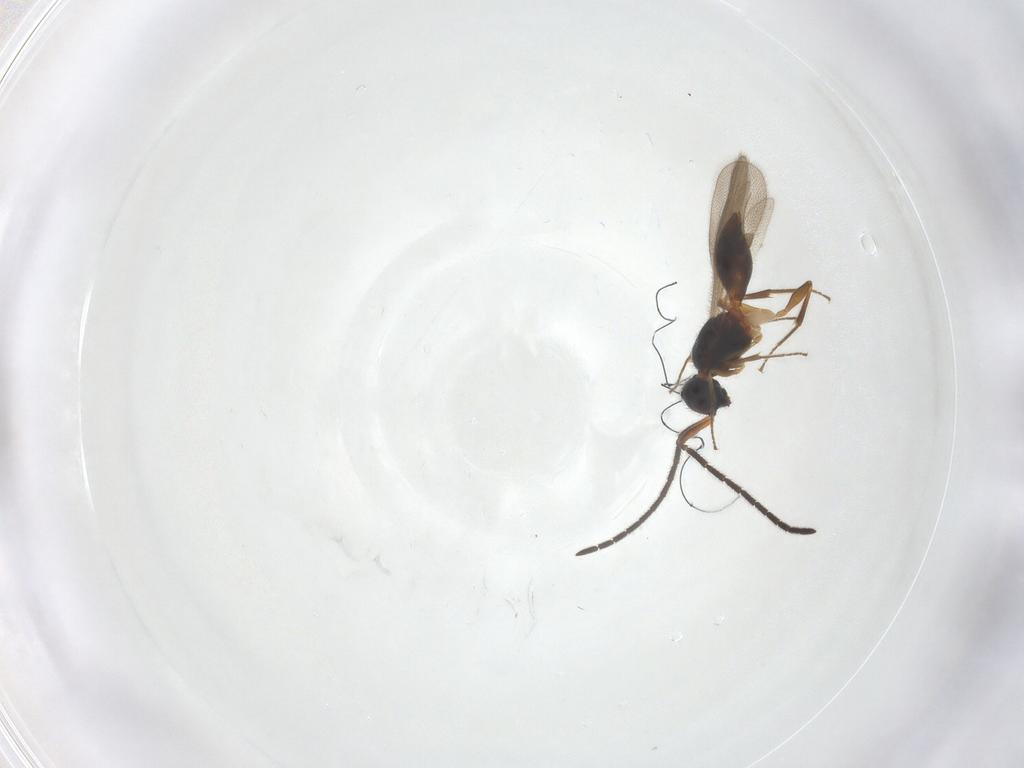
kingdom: Animalia
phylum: Arthropoda
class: Insecta
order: Hymenoptera
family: Megaspilidae
